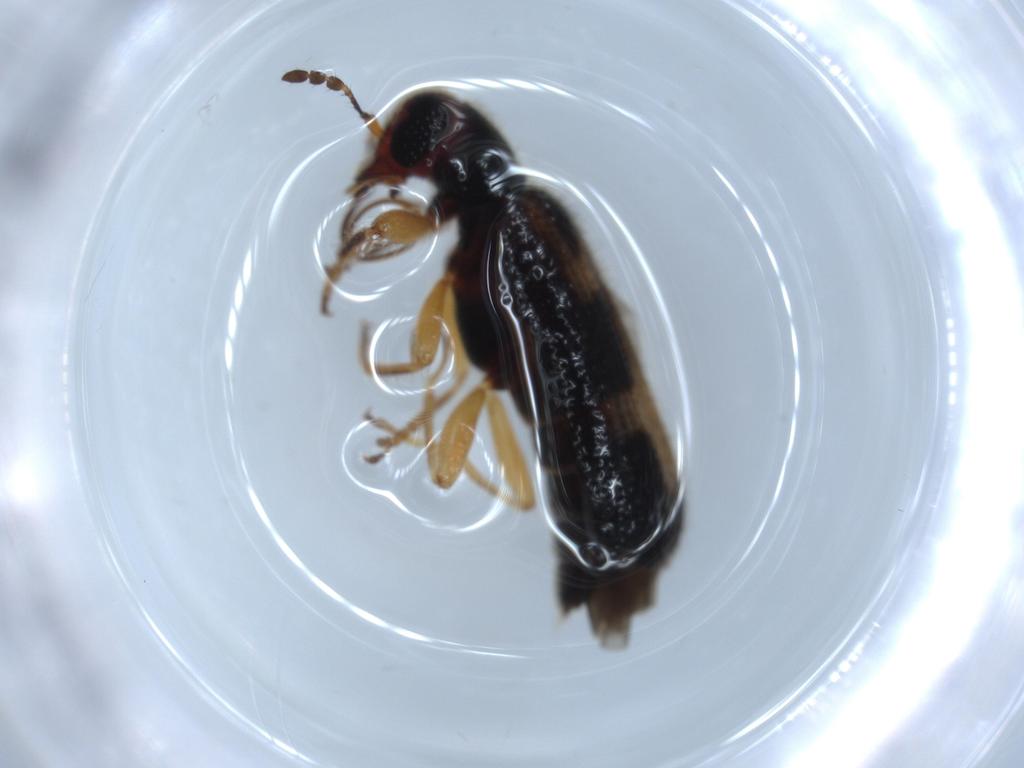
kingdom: Animalia
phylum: Arthropoda
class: Insecta
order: Coleoptera
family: Cleridae
